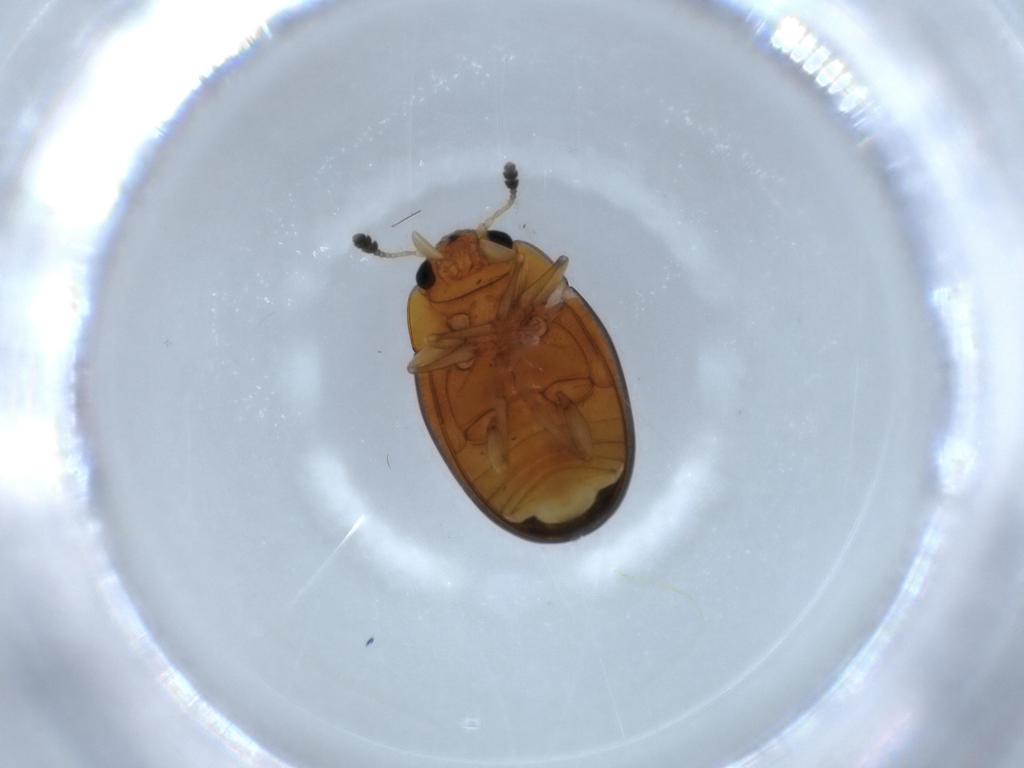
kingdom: Animalia
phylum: Arthropoda
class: Insecta
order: Coleoptera
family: Erotylidae
